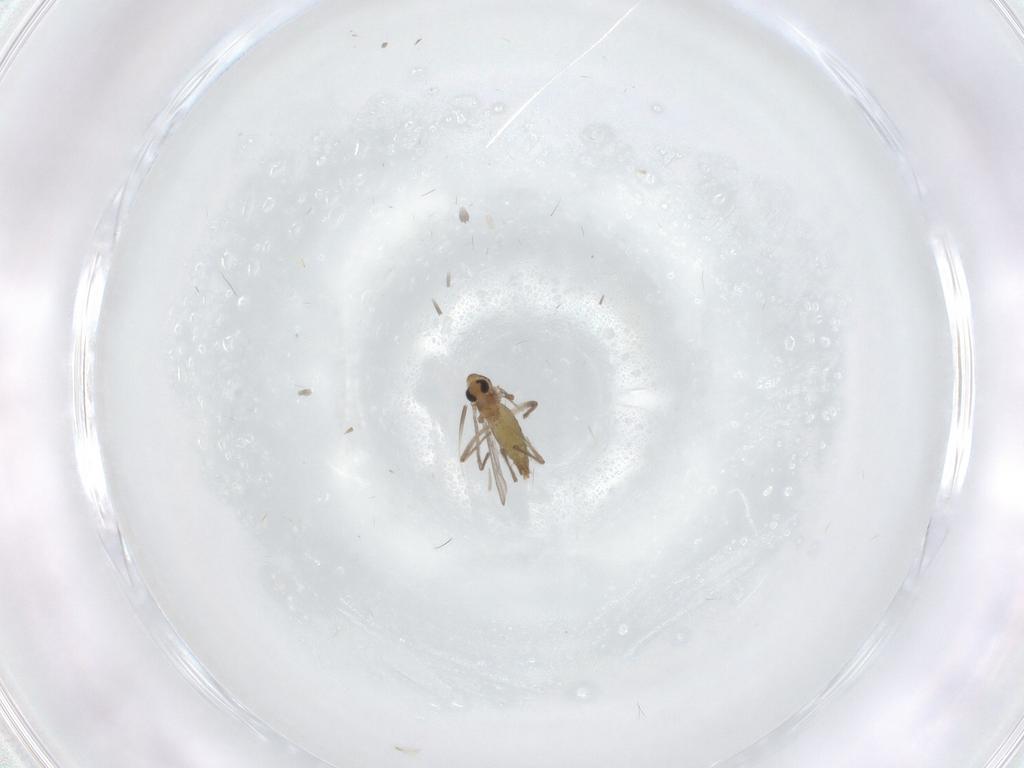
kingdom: Animalia
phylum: Arthropoda
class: Insecta
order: Diptera
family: Chironomidae
